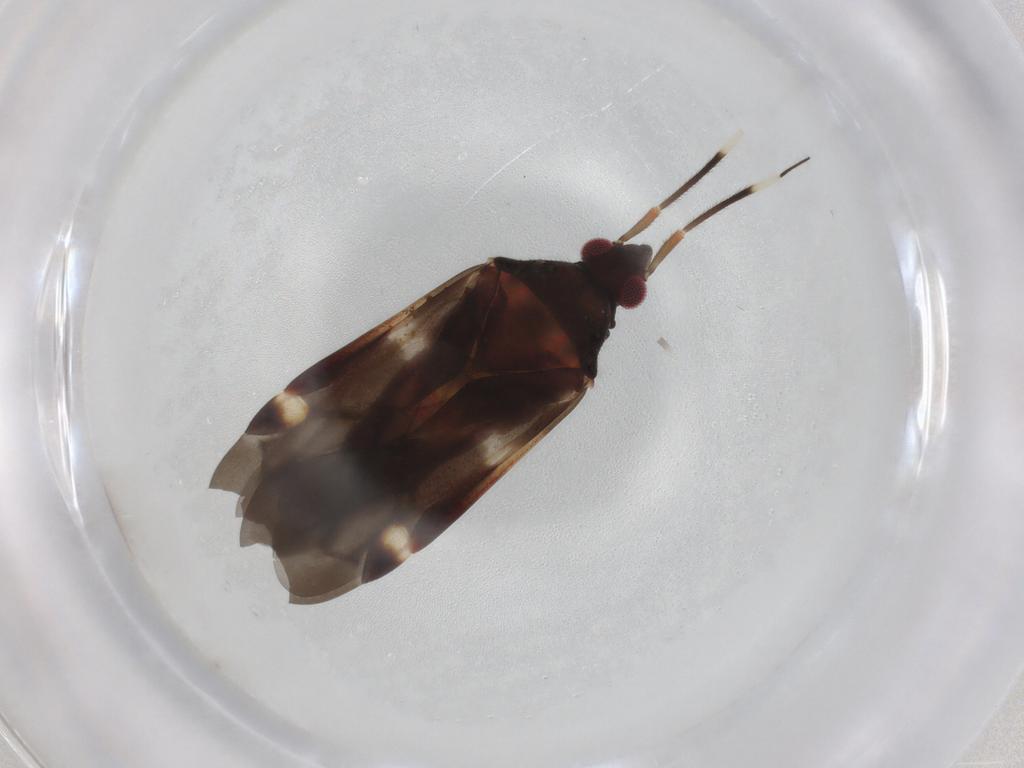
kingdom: Animalia
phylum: Arthropoda
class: Insecta
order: Hemiptera
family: Miridae
